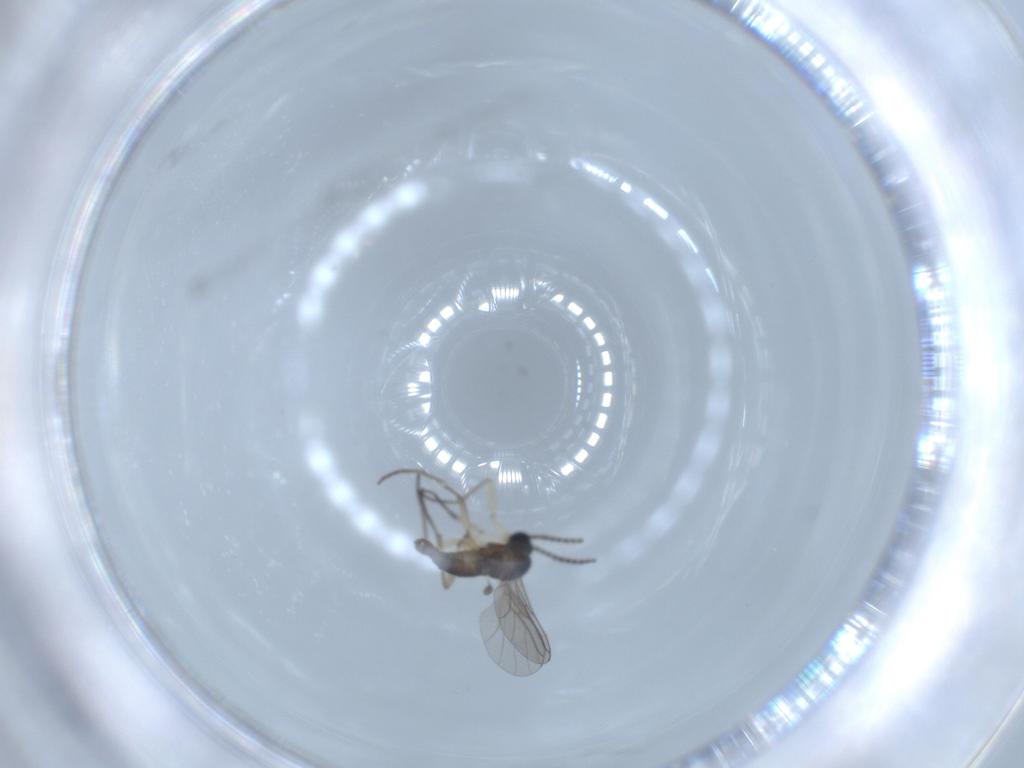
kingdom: Animalia
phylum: Arthropoda
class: Insecta
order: Diptera
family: Sciaridae
